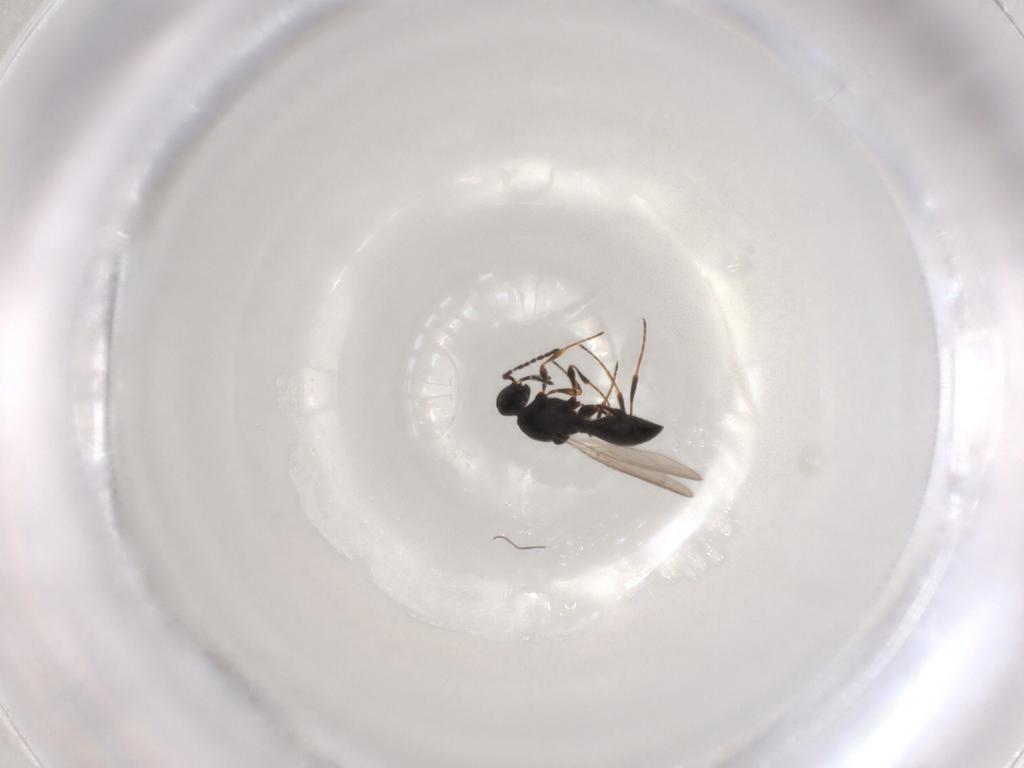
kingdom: Animalia
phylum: Arthropoda
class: Insecta
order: Hymenoptera
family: Platygastridae
